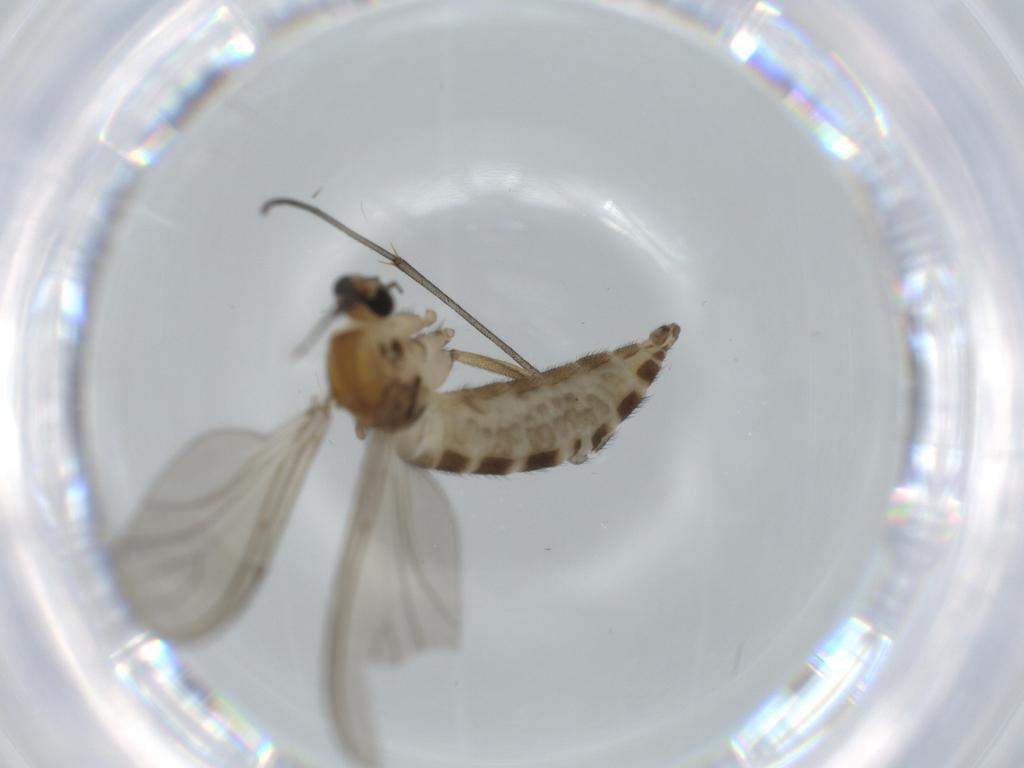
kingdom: Animalia
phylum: Arthropoda
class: Insecta
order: Diptera
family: Sciaridae
